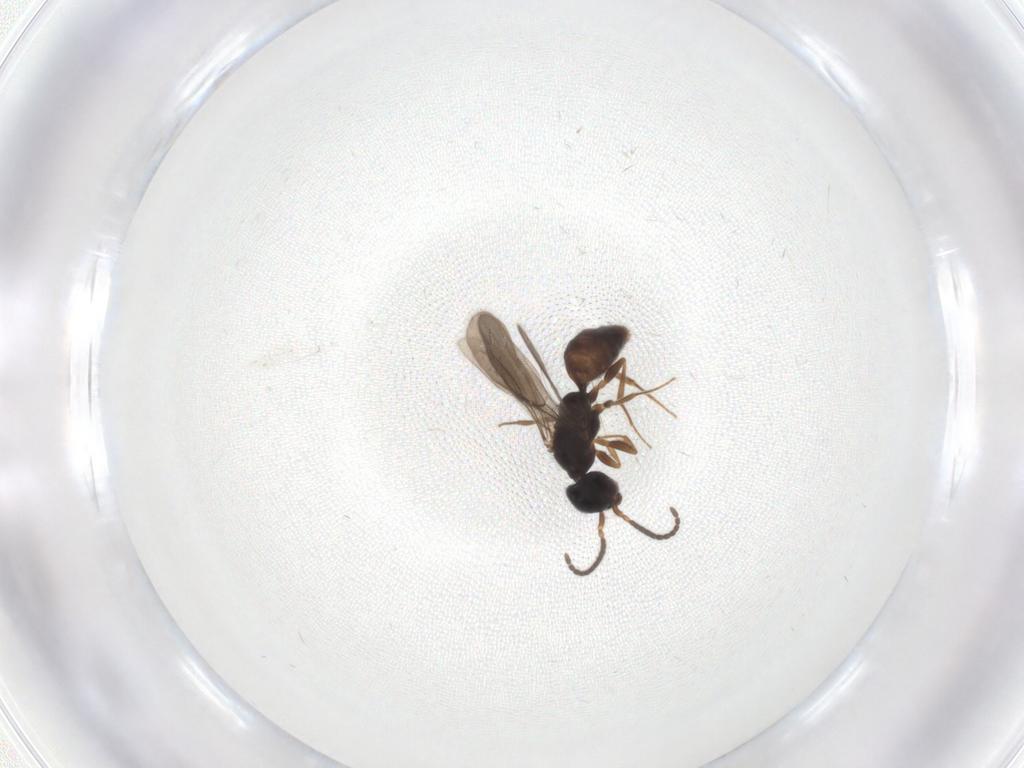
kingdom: Animalia
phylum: Arthropoda
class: Insecta
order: Hymenoptera
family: Bethylidae
